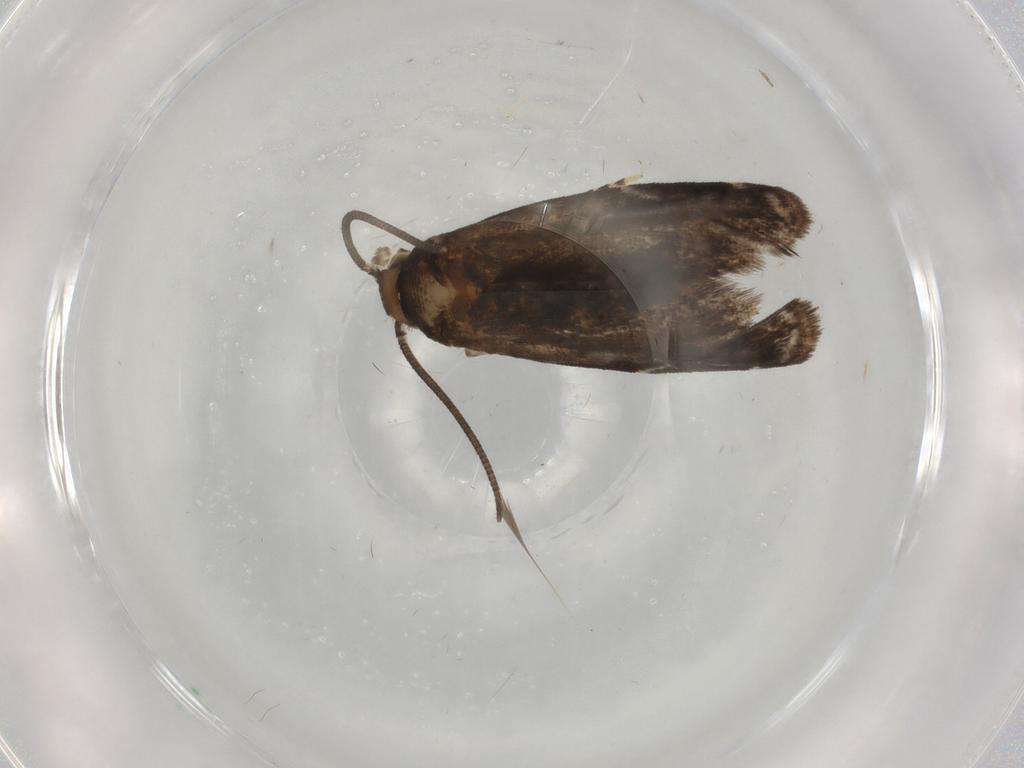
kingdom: Animalia
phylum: Arthropoda
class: Insecta
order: Lepidoptera
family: Dryadaulidae
